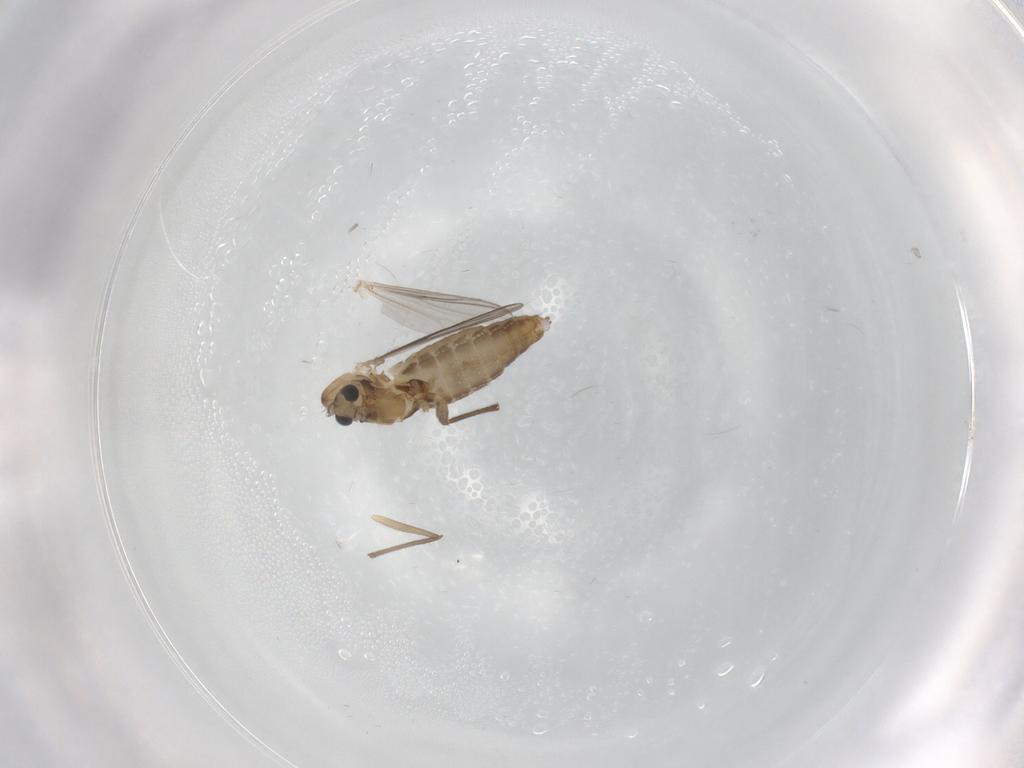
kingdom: Animalia
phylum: Arthropoda
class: Insecta
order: Diptera
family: Chironomidae
